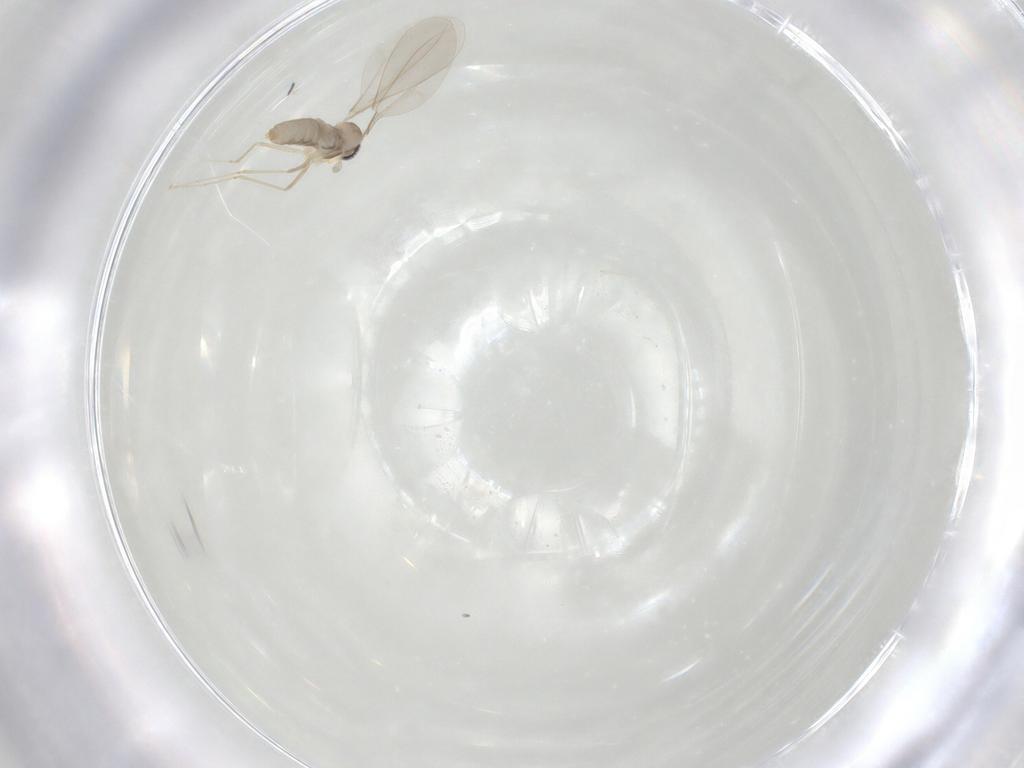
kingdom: Animalia
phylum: Arthropoda
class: Insecta
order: Diptera
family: Cecidomyiidae
